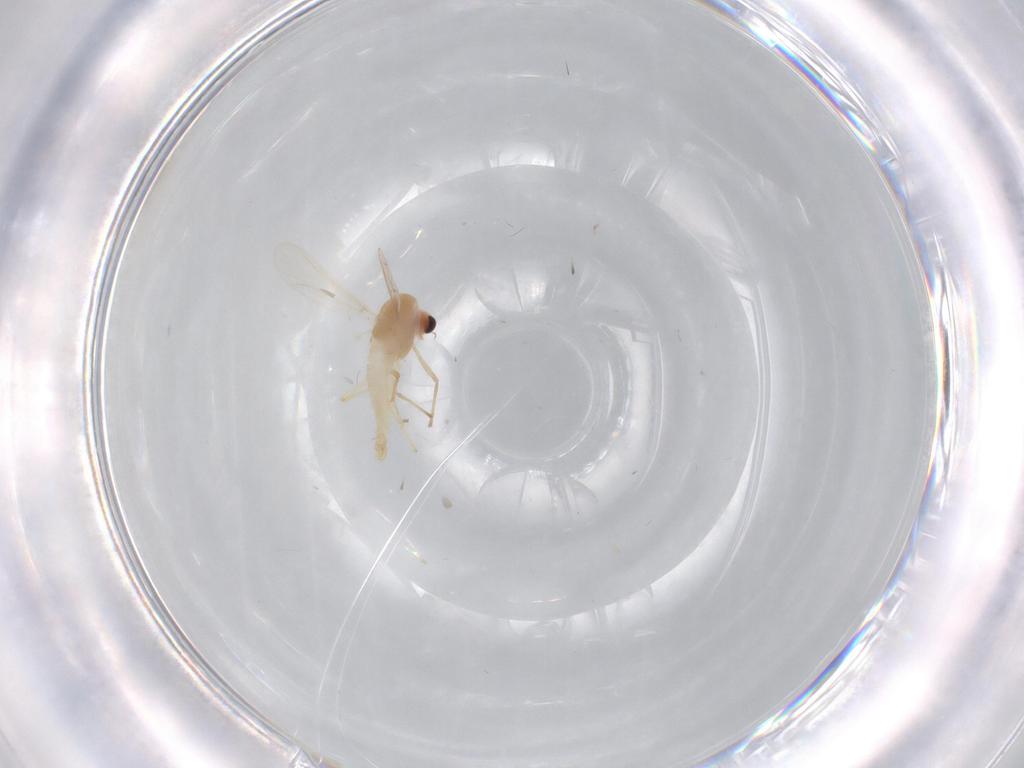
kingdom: Animalia
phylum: Arthropoda
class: Insecta
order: Diptera
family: Chironomidae
